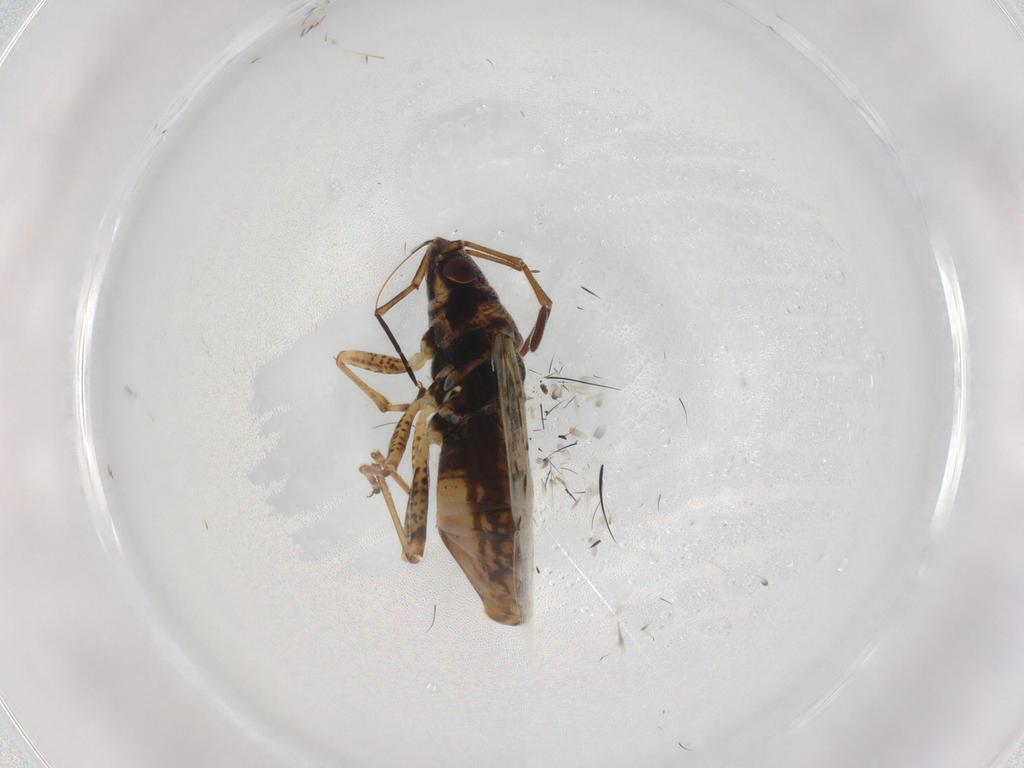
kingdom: Animalia
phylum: Arthropoda
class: Insecta
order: Hemiptera
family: Lygaeidae
